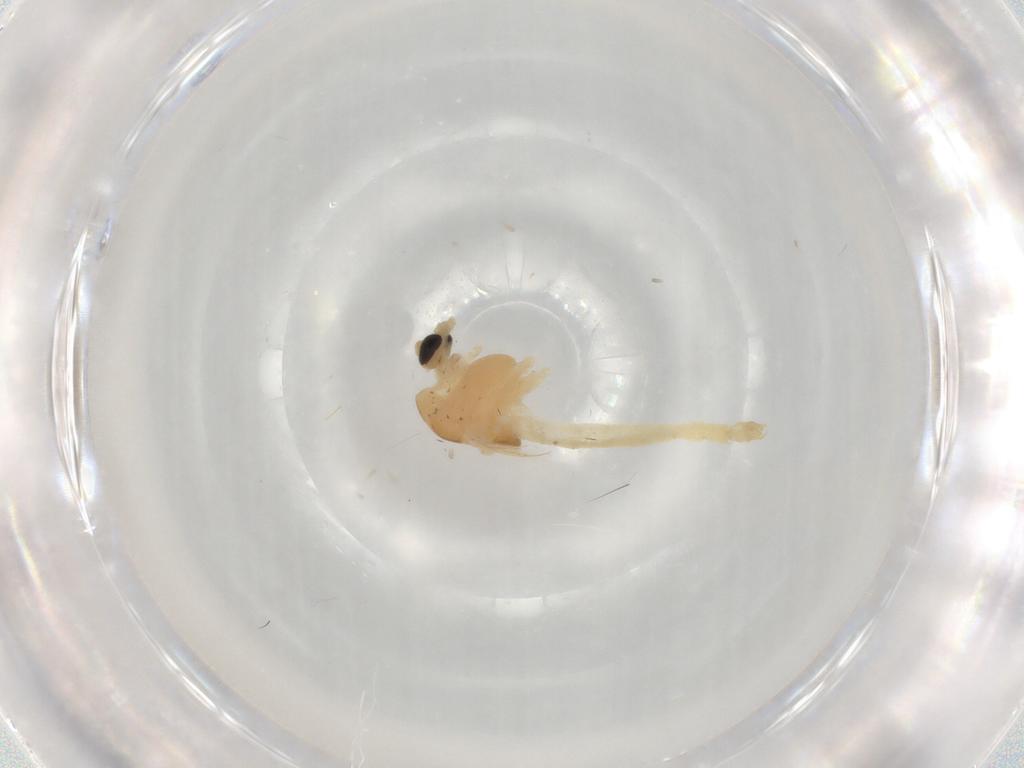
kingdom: Animalia
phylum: Arthropoda
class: Insecta
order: Diptera
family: Chironomidae
